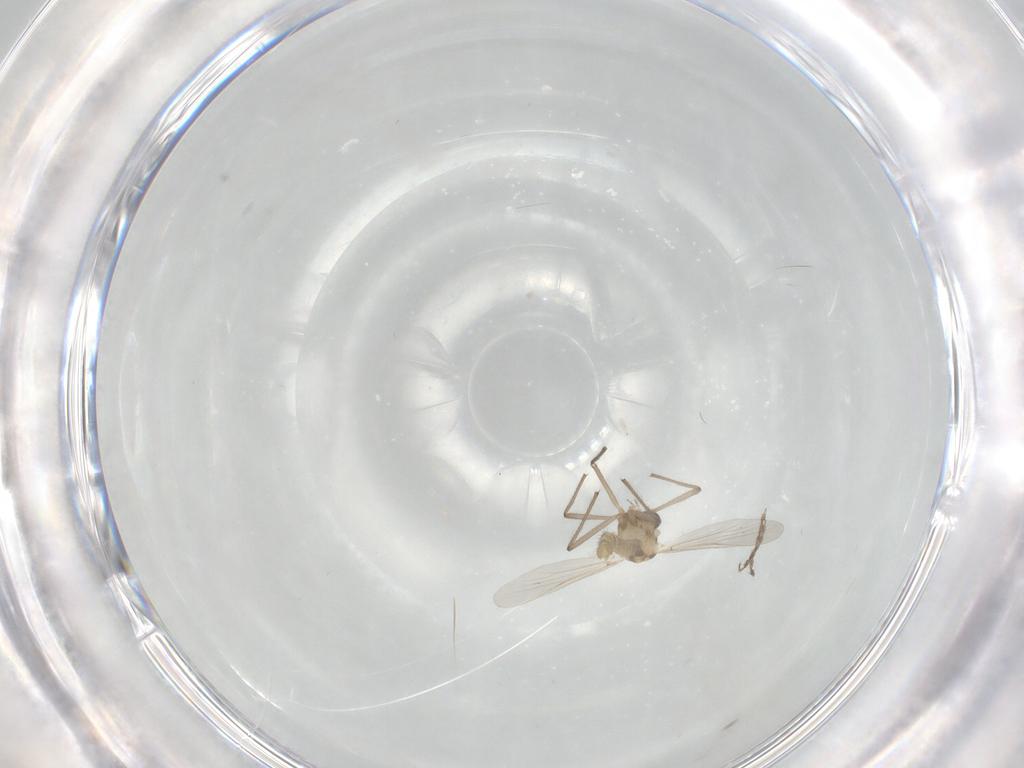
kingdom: Animalia
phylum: Arthropoda
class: Insecta
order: Diptera
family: Cecidomyiidae
